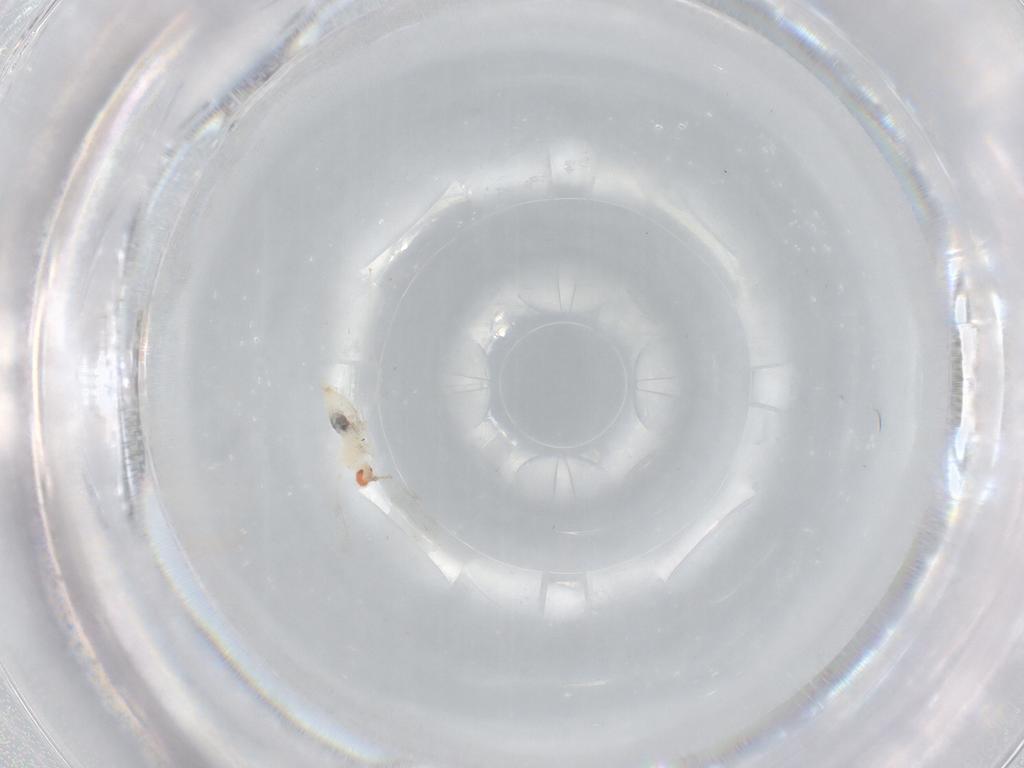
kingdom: Animalia
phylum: Arthropoda
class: Insecta
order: Diptera
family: Cecidomyiidae
